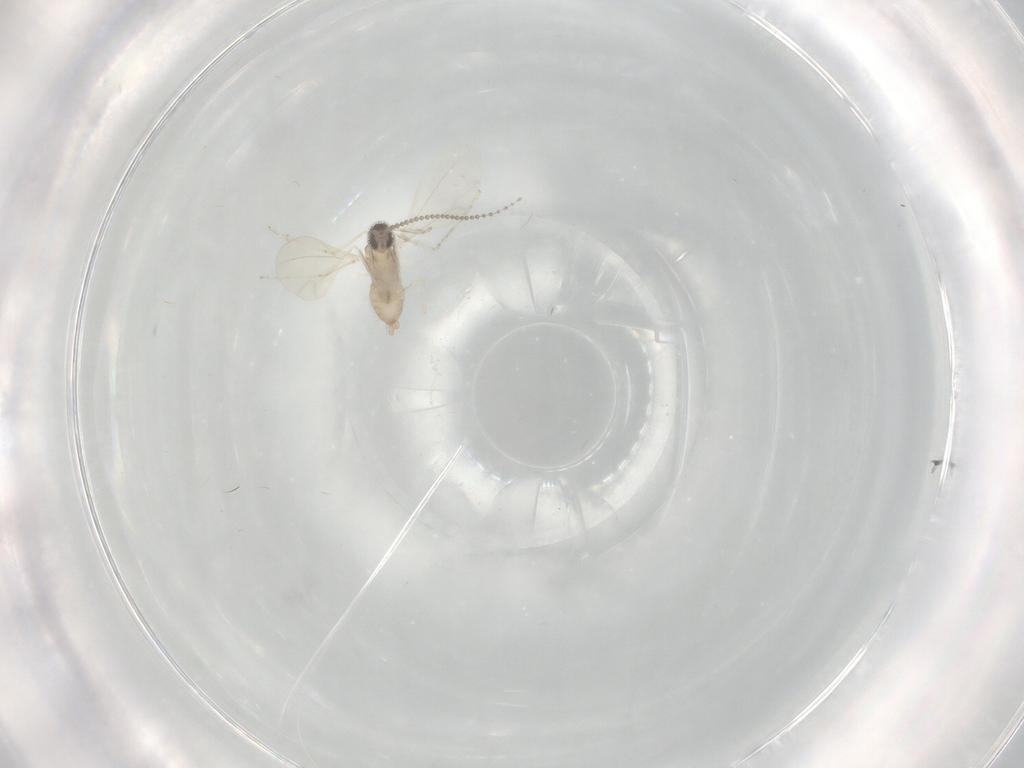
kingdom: Animalia
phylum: Arthropoda
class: Insecta
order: Diptera
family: Cecidomyiidae
